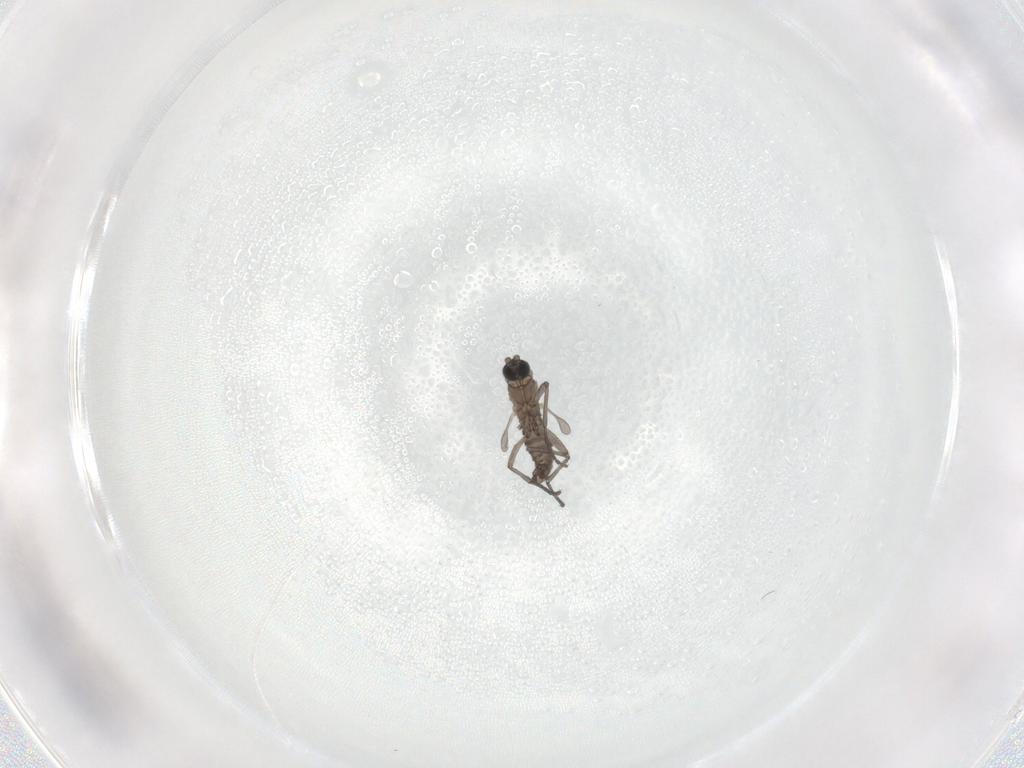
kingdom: Animalia
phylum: Arthropoda
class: Insecta
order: Diptera
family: Sciaridae
